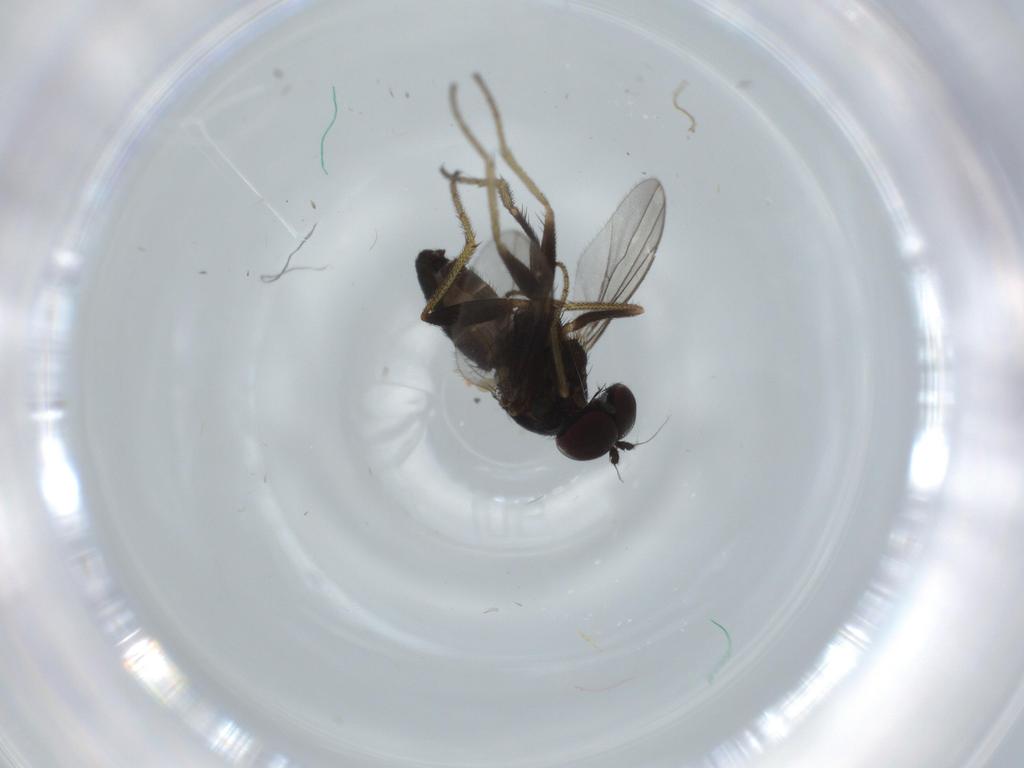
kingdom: Animalia
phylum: Arthropoda
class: Insecta
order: Diptera
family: Dolichopodidae
